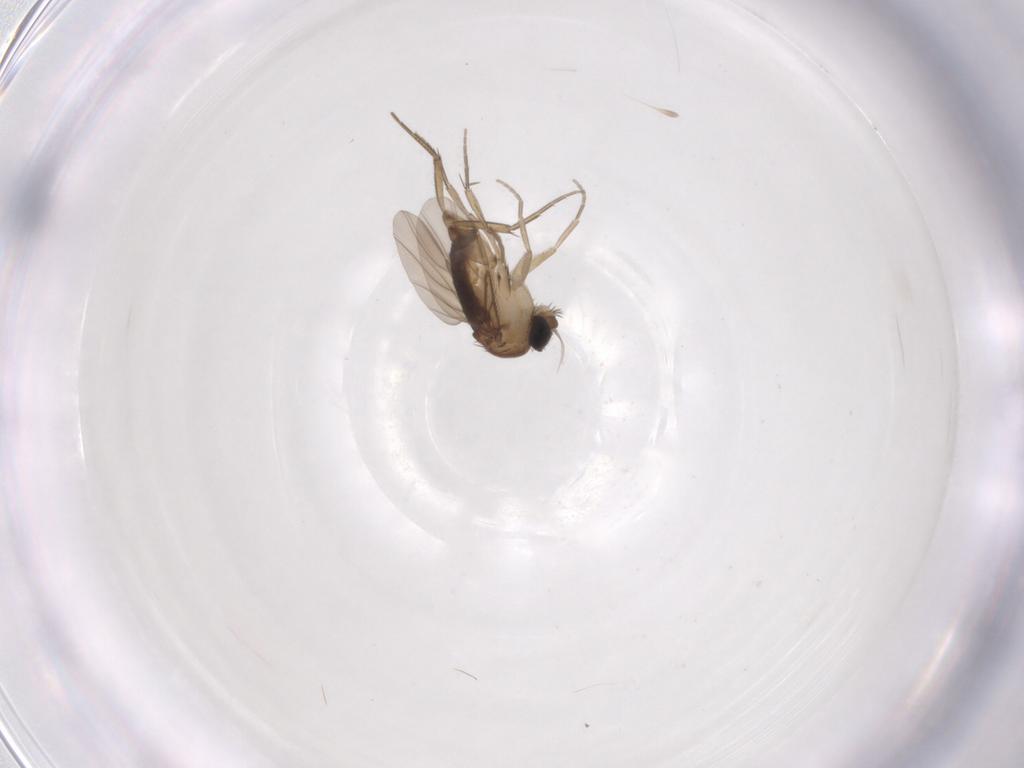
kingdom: Animalia
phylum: Arthropoda
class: Insecta
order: Diptera
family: Phoridae
